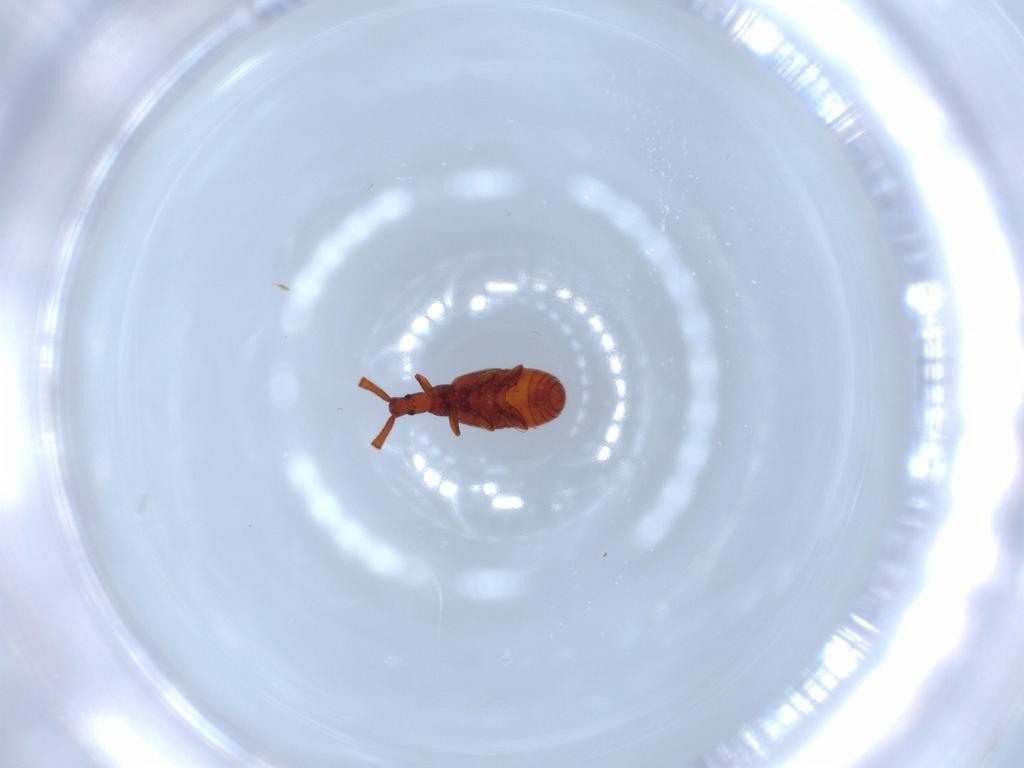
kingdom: Animalia
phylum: Arthropoda
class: Insecta
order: Coleoptera
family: Staphylinidae
